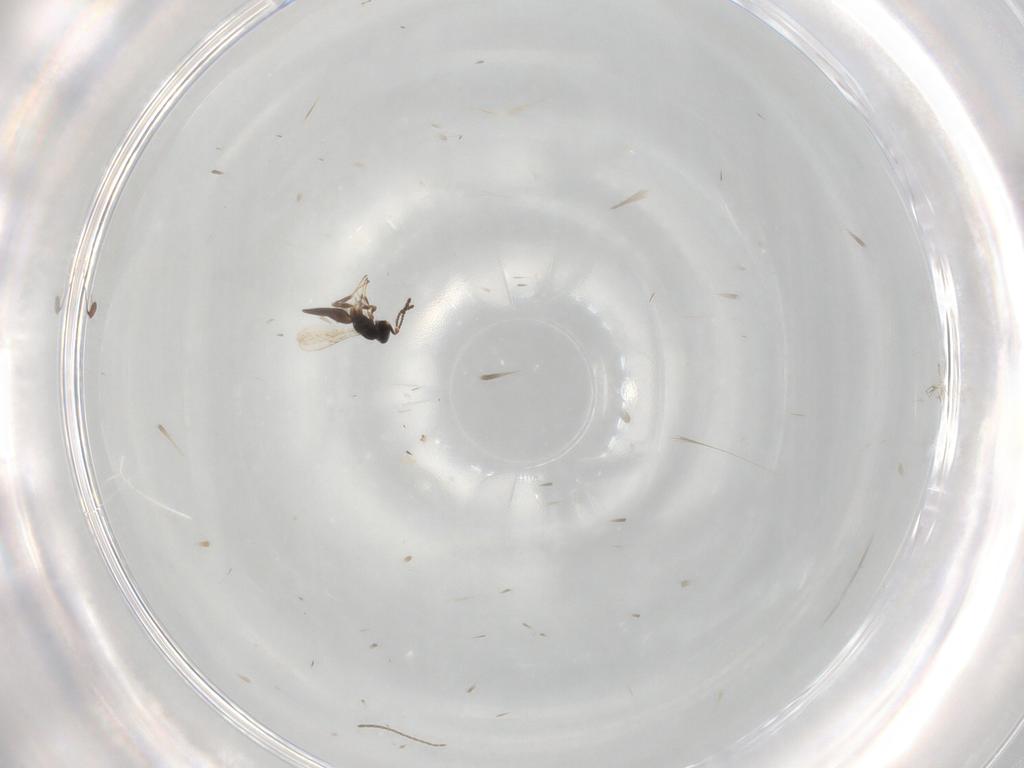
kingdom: Animalia
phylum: Arthropoda
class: Insecta
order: Hymenoptera
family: Scelionidae
